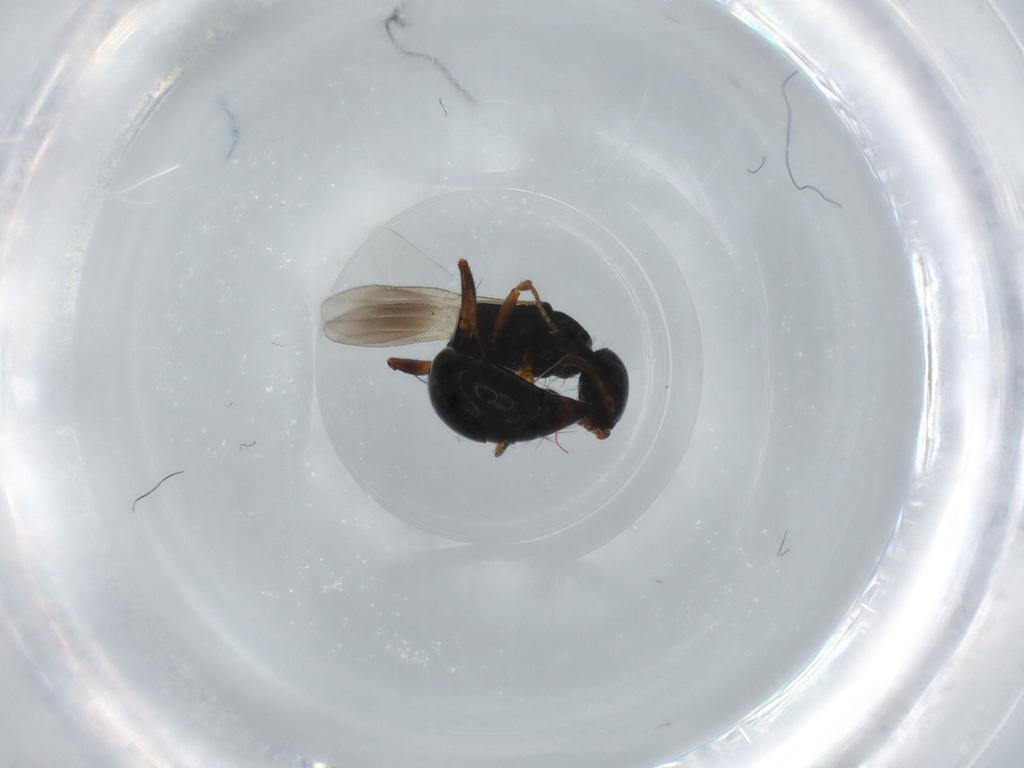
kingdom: Animalia
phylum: Arthropoda
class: Insecta
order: Hymenoptera
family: Bethylidae
